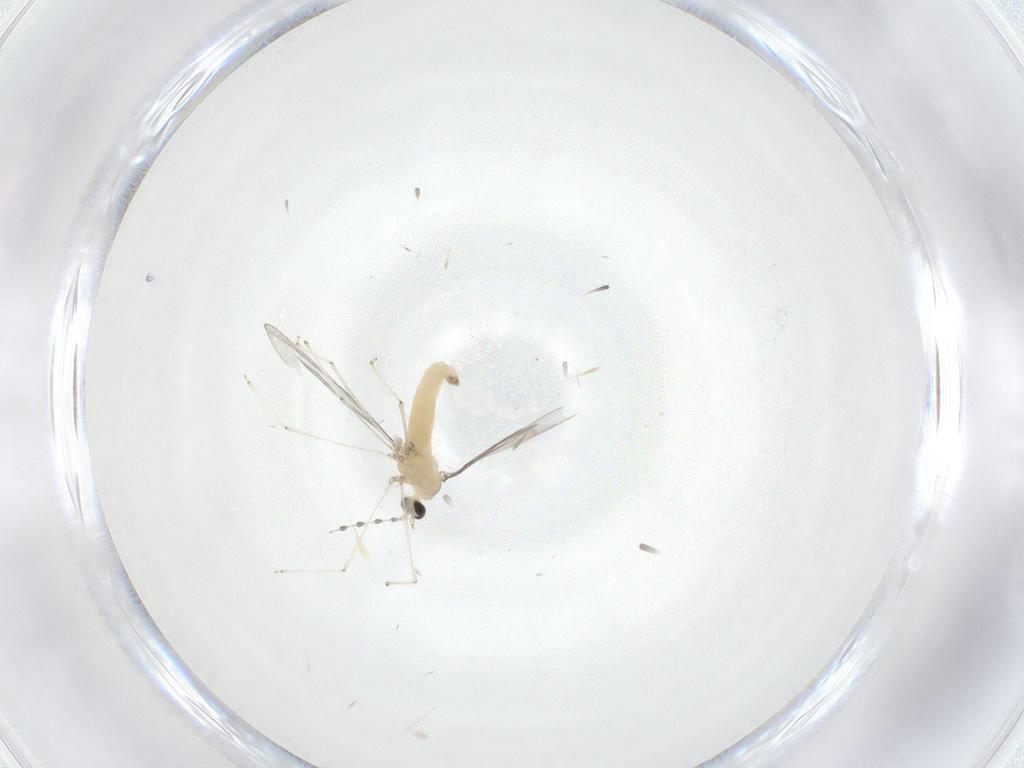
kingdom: Animalia
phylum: Arthropoda
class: Insecta
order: Diptera
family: Cecidomyiidae
